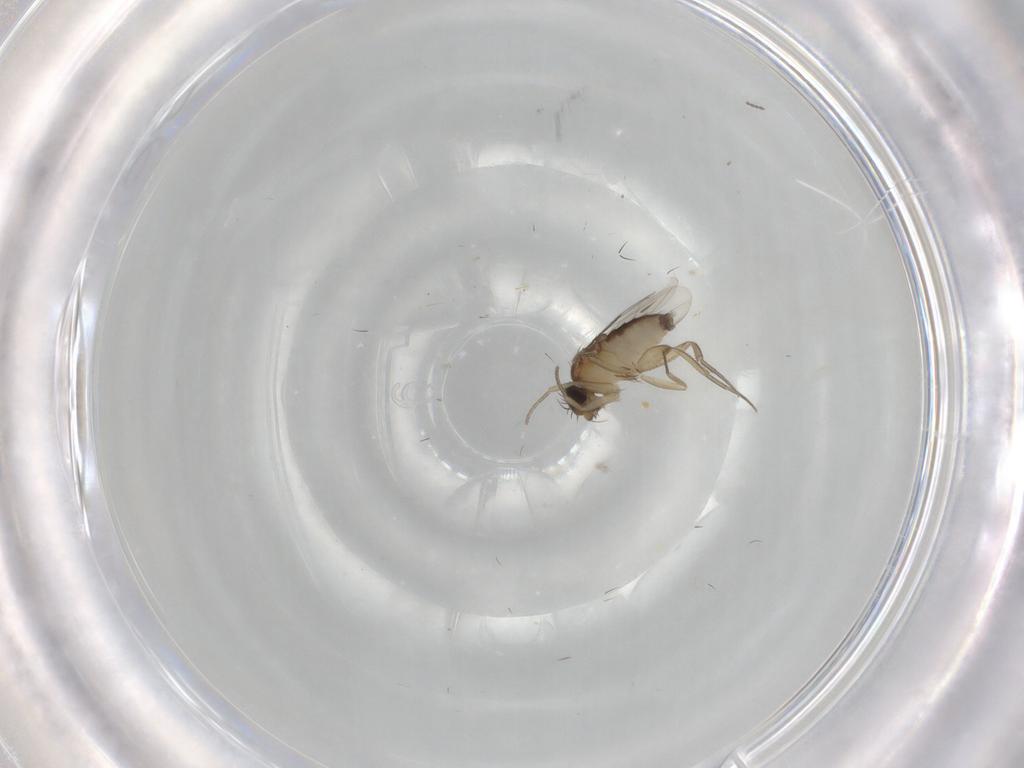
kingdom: Animalia
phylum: Arthropoda
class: Insecta
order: Diptera
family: Phoridae
